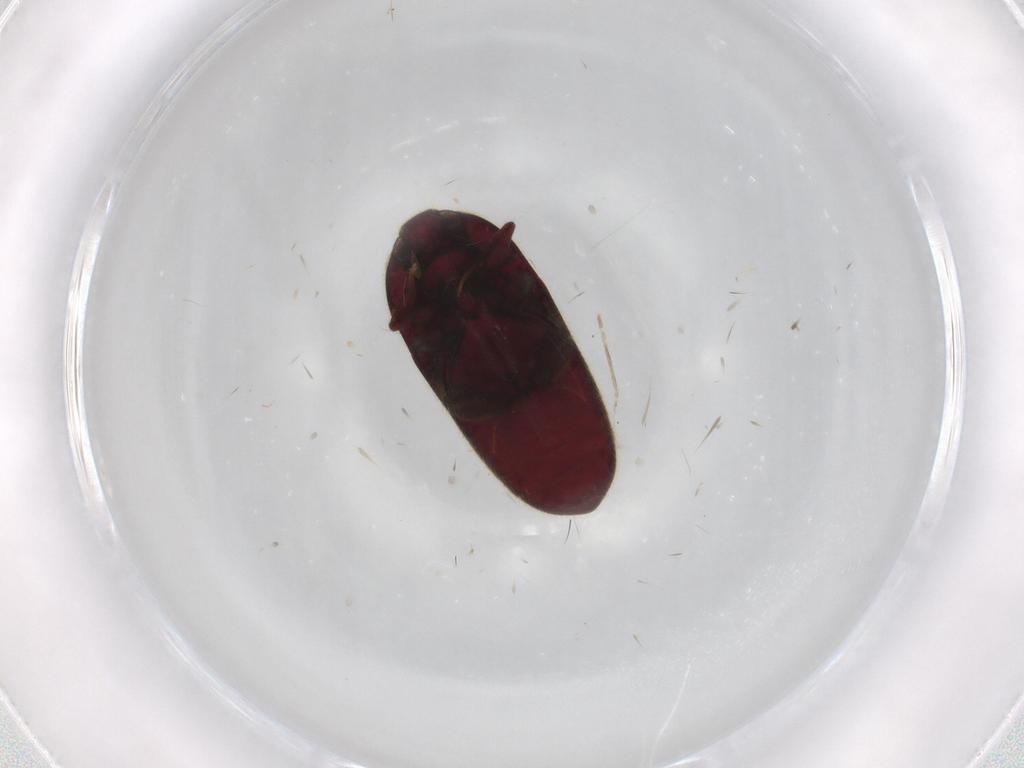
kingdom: Animalia
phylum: Arthropoda
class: Insecta
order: Coleoptera
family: Throscidae
